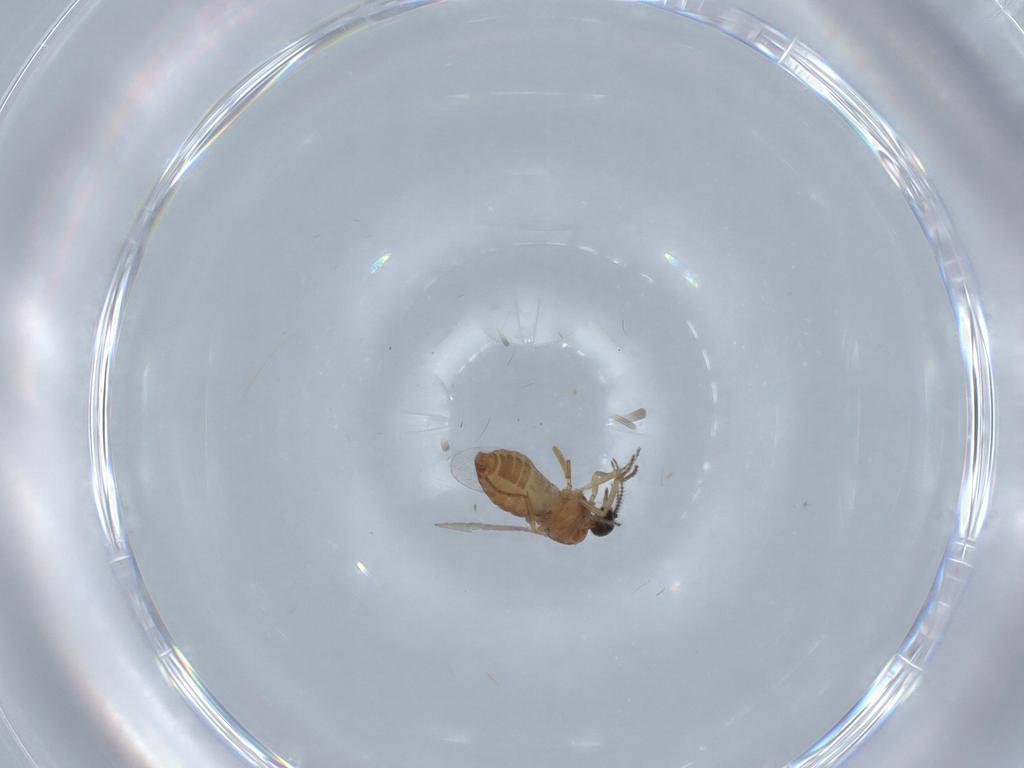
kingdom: Animalia
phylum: Arthropoda
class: Insecta
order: Diptera
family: Ceratopogonidae
